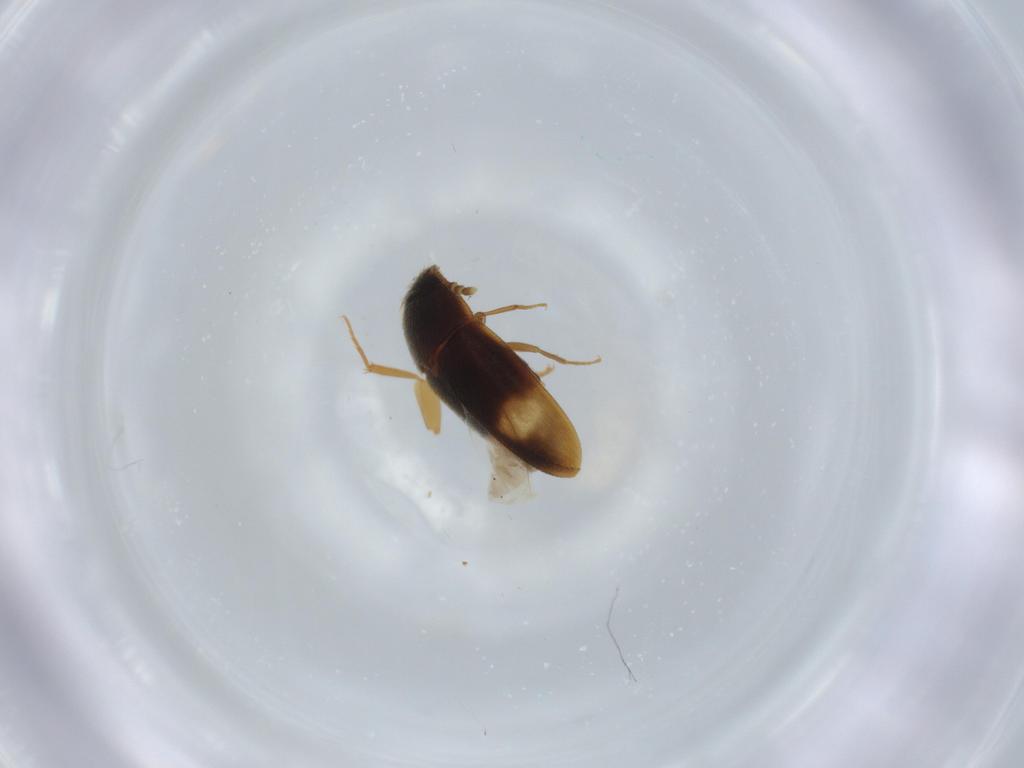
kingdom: Animalia
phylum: Arthropoda
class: Insecta
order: Coleoptera
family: Mycetophagidae
